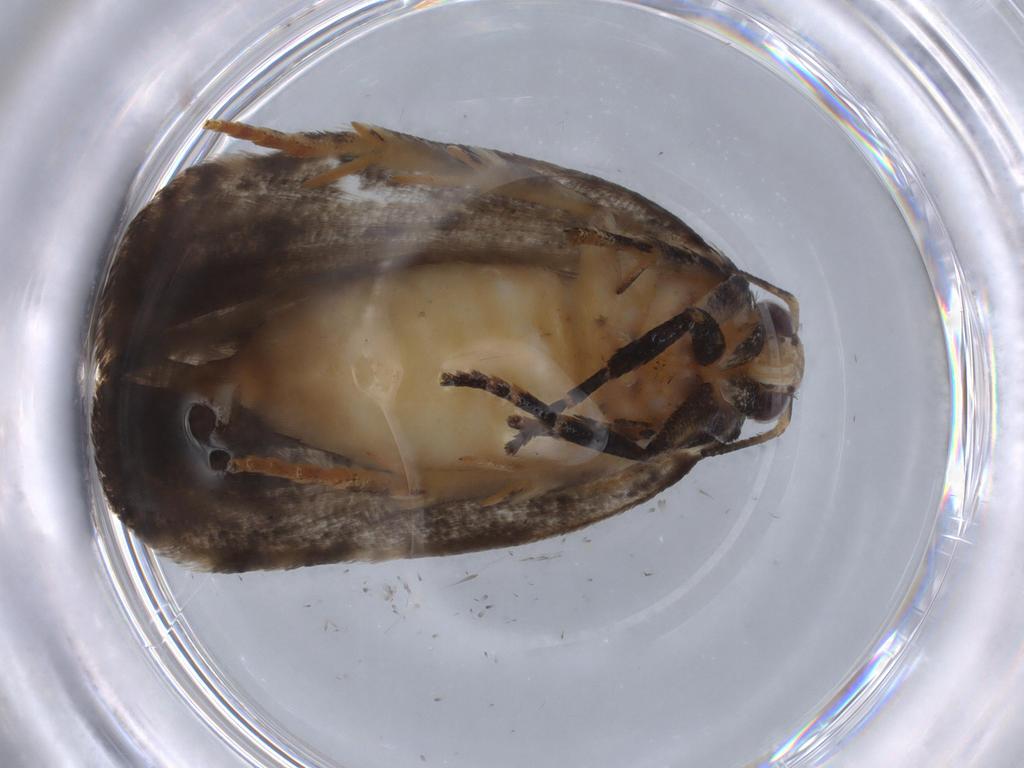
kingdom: Animalia
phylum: Arthropoda
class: Insecta
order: Lepidoptera
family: Gelechiidae
